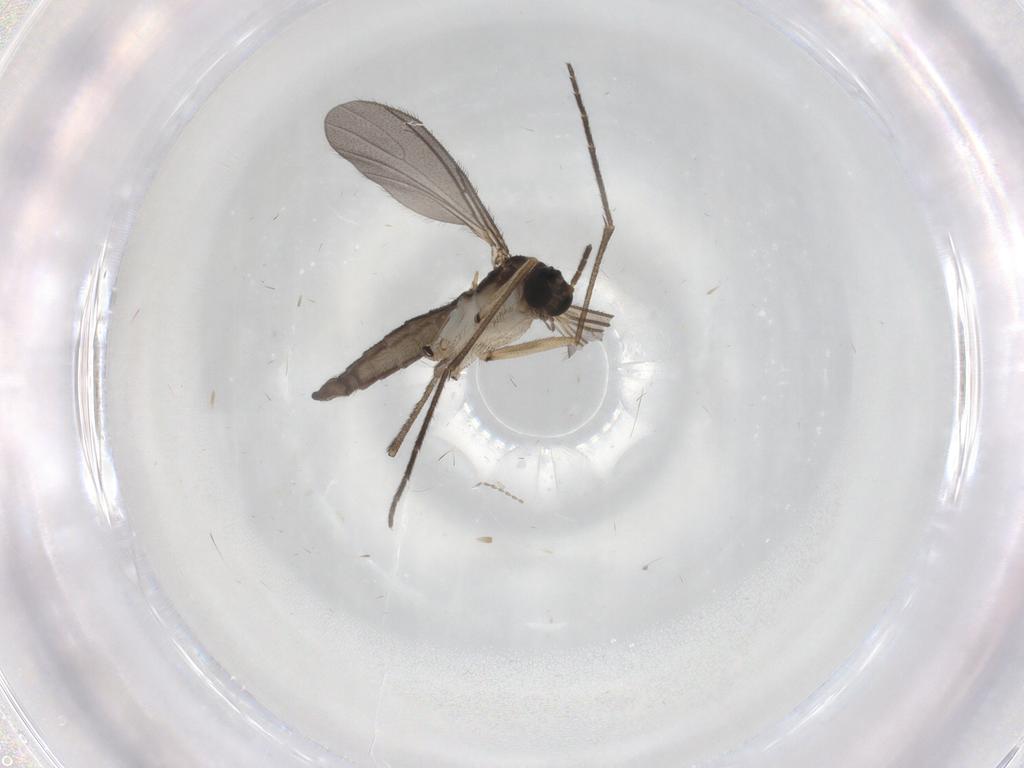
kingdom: Animalia
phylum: Arthropoda
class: Insecta
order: Diptera
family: Sciaridae
